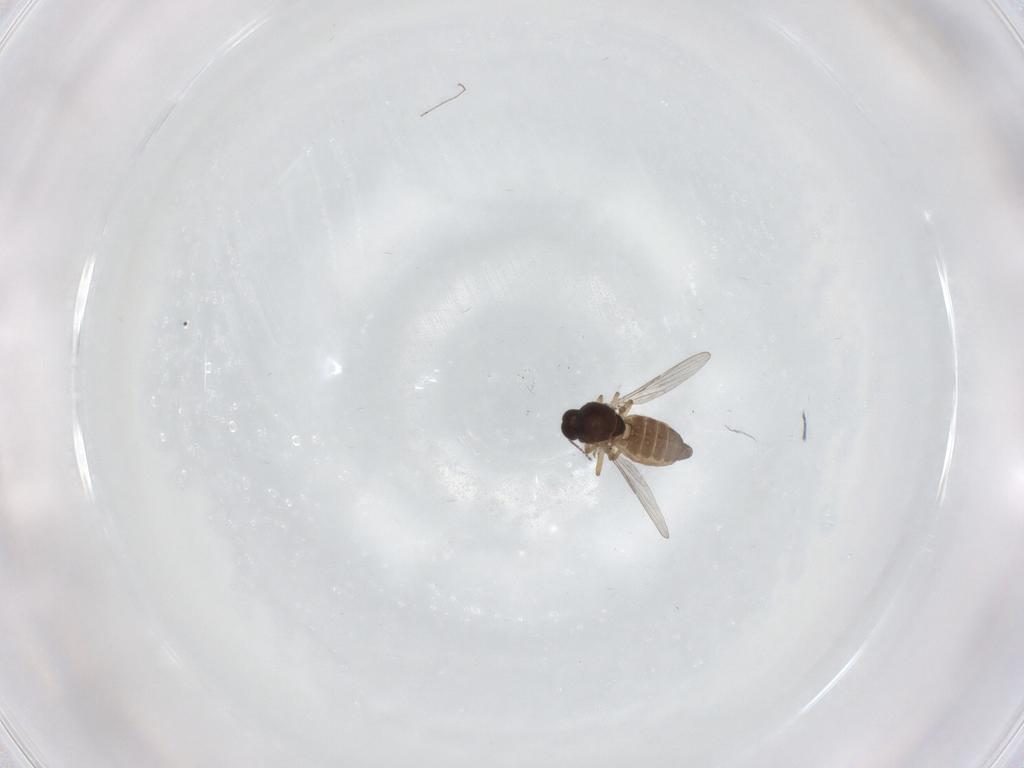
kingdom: Animalia
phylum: Arthropoda
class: Insecta
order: Diptera
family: Ceratopogonidae
